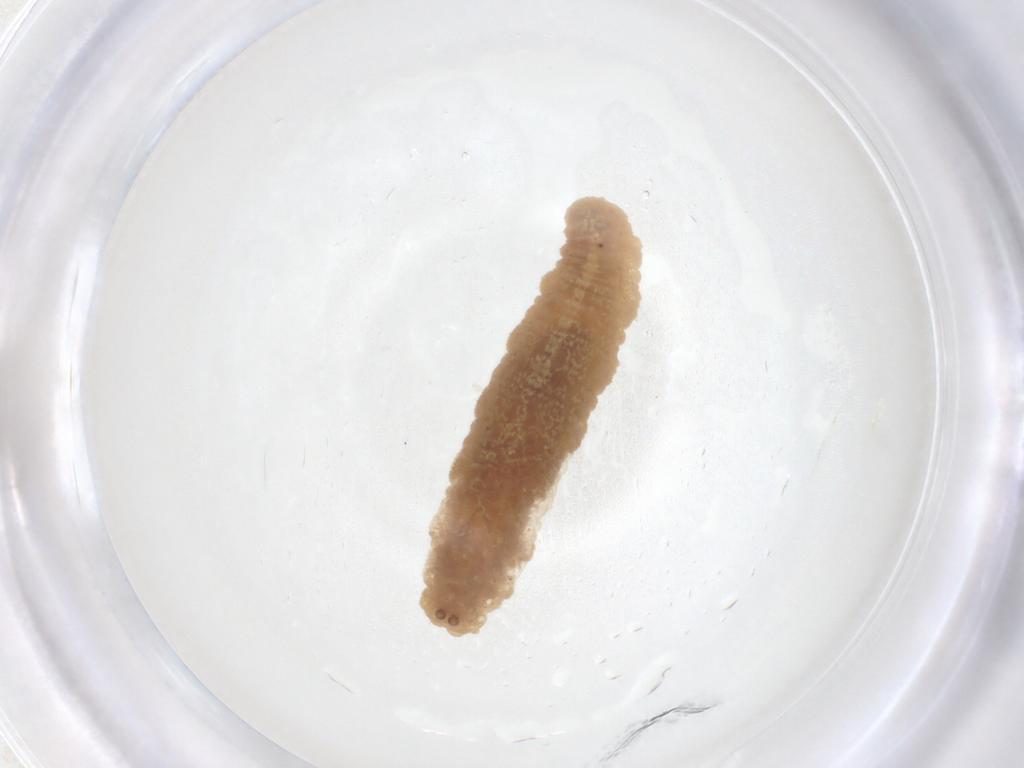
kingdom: Animalia
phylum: Arthropoda
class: Insecta
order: Diptera
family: Syrphidae
